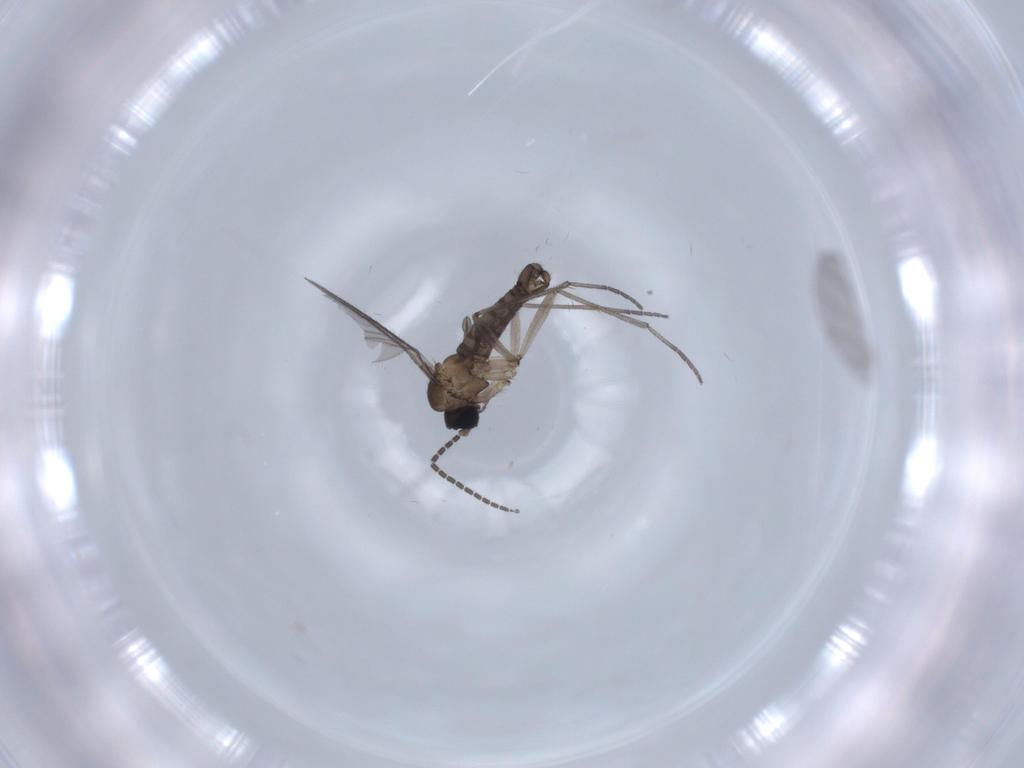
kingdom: Animalia
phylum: Arthropoda
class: Insecta
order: Diptera
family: Sciaridae
